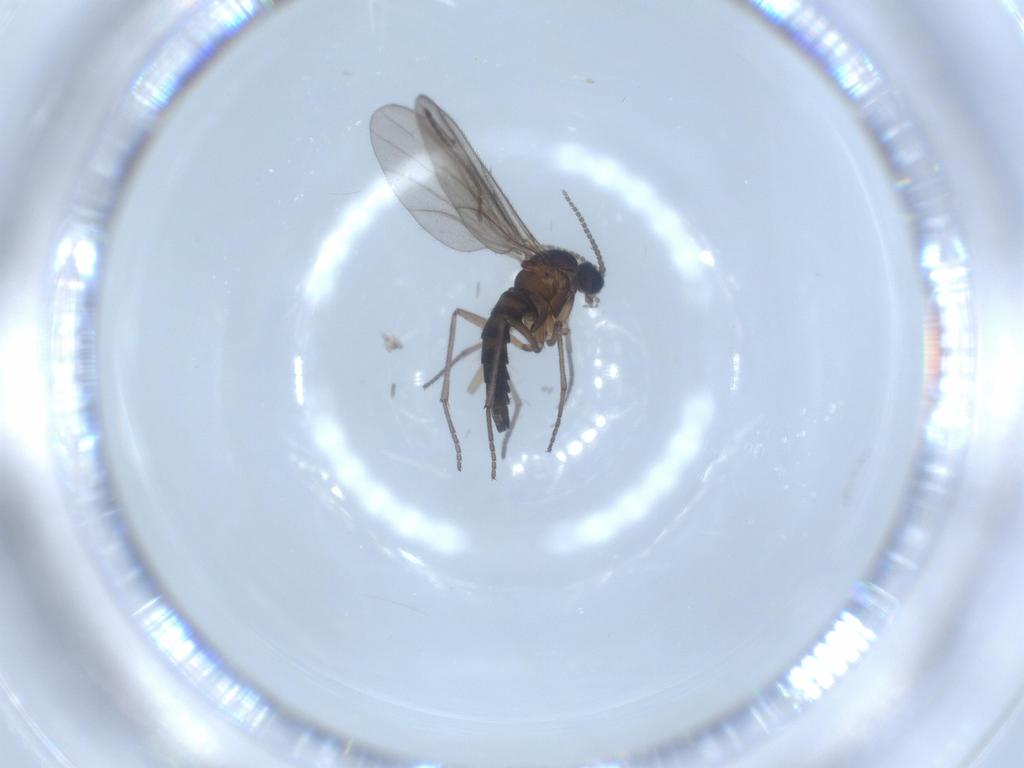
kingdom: Animalia
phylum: Arthropoda
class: Insecta
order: Diptera
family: Sciaridae
